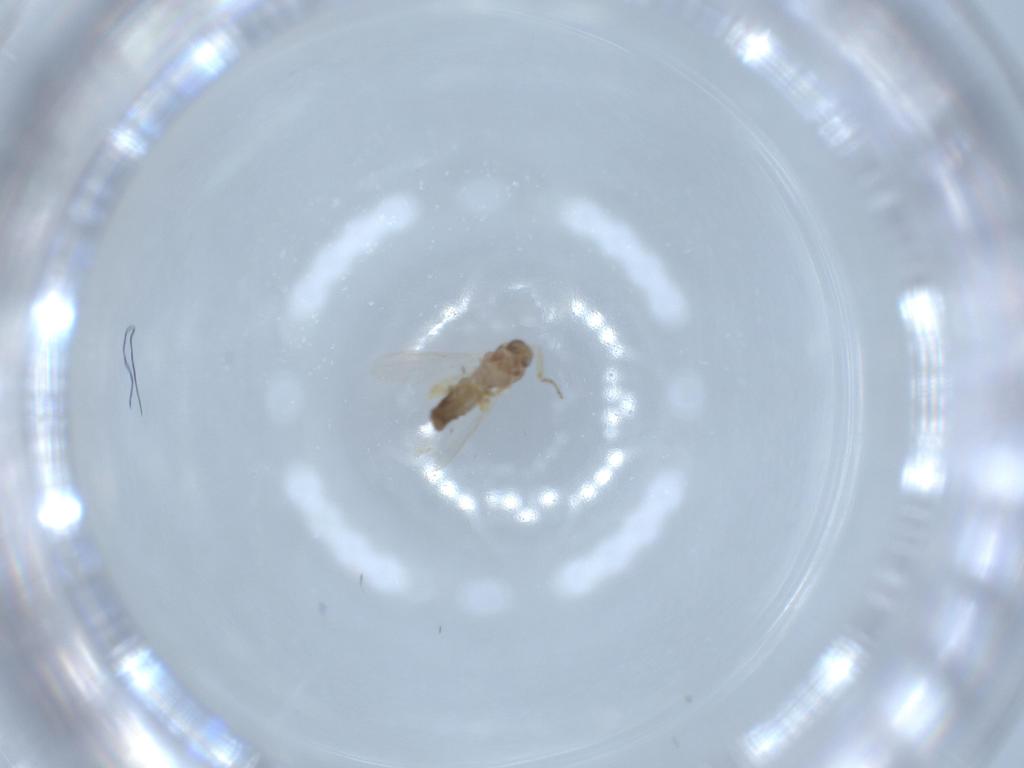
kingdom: Animalia
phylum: Arthropoda
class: Insecta
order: Diptera
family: Ceratopogonidae
